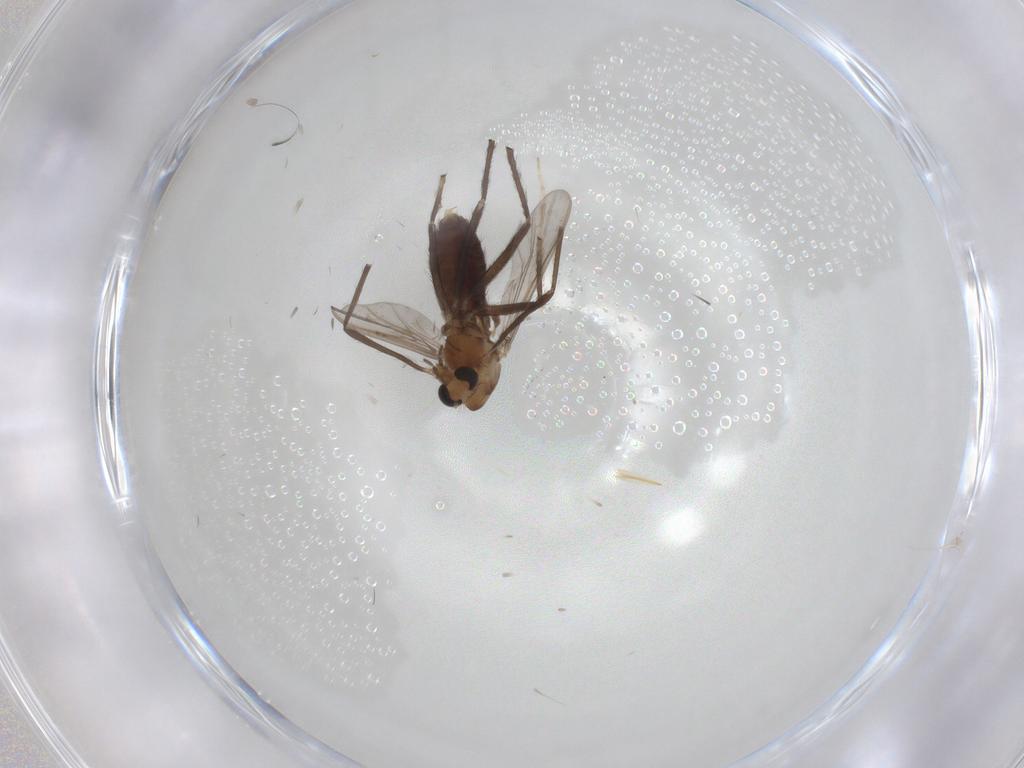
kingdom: Animalia
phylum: Arthropoda
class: Insecta
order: Diptera
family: Chironomidae
